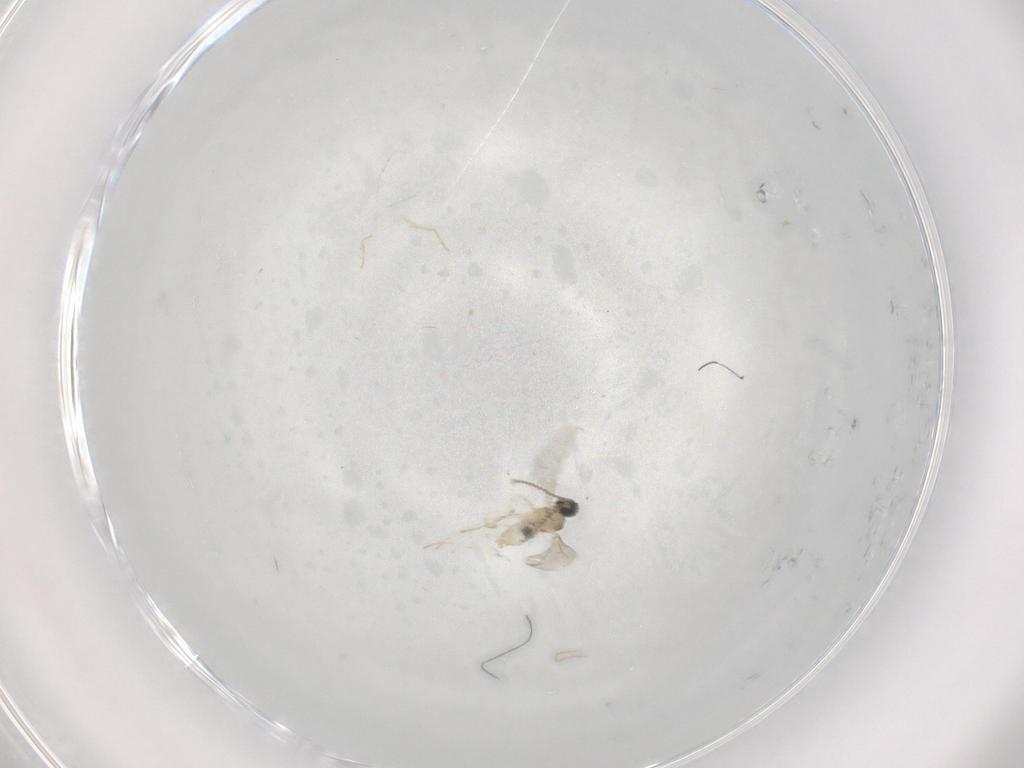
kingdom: Animalia
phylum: Arthropoda
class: Insecta
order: Diptera
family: Cecidomyiidae
